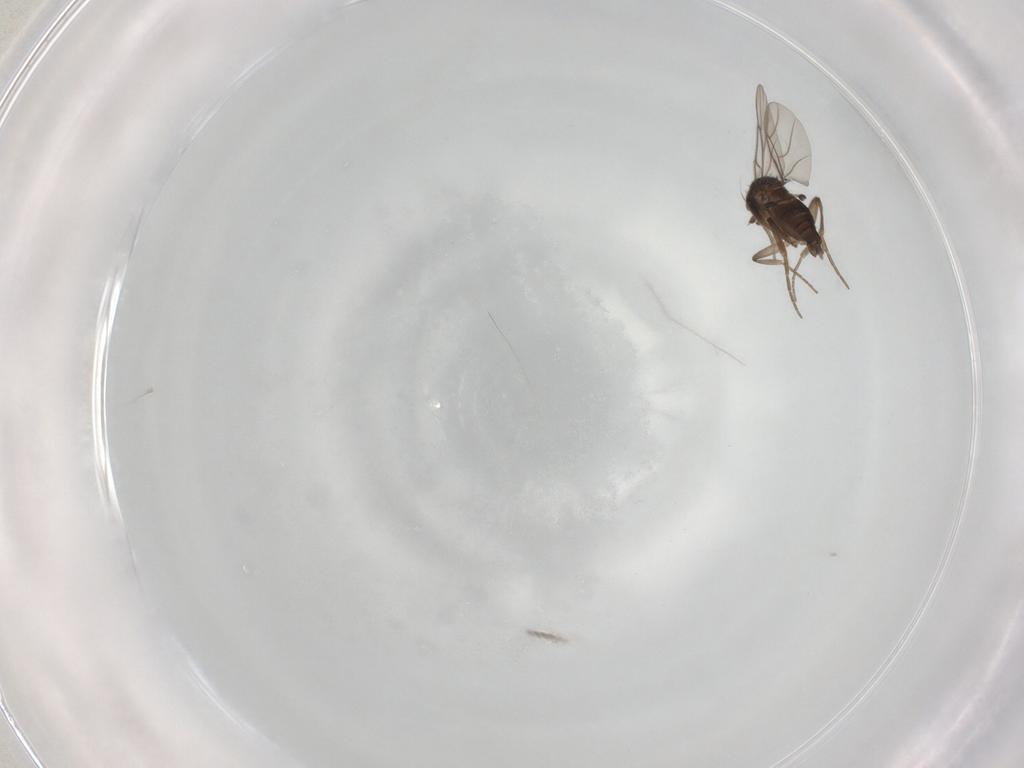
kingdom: Animalia
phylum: Arthropoda
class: Insecta
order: Diptera
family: Phoridae
